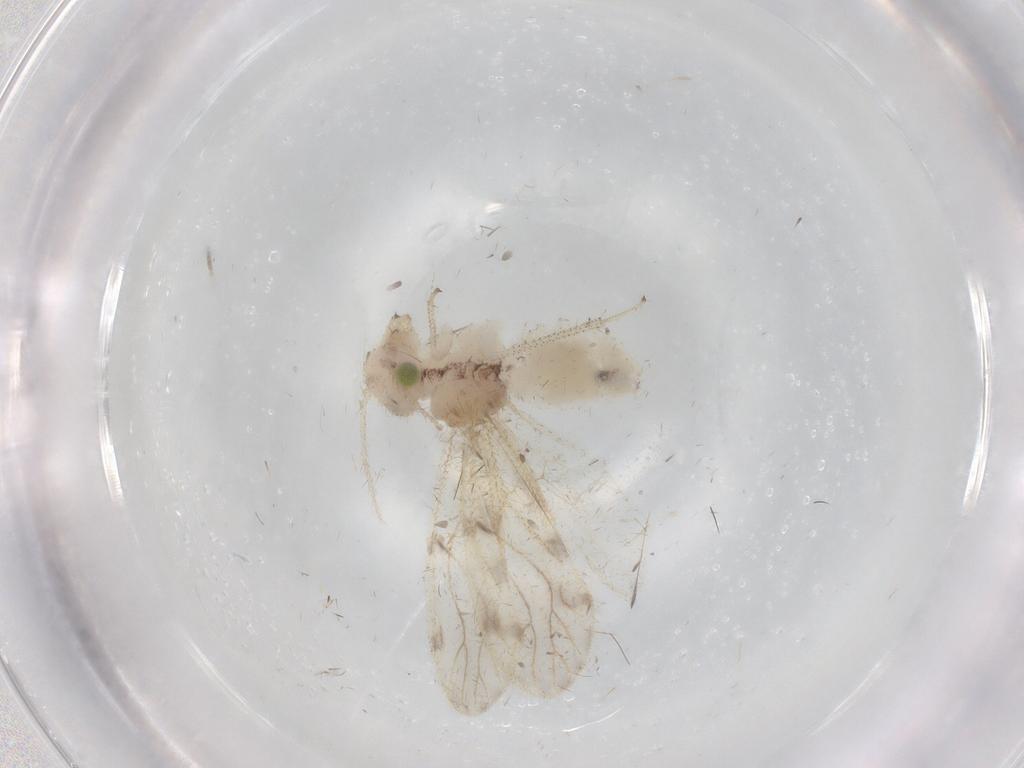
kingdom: Animalia
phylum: Arthropoda
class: Insecta
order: Psocodea
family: Pseudocaeciliidae
